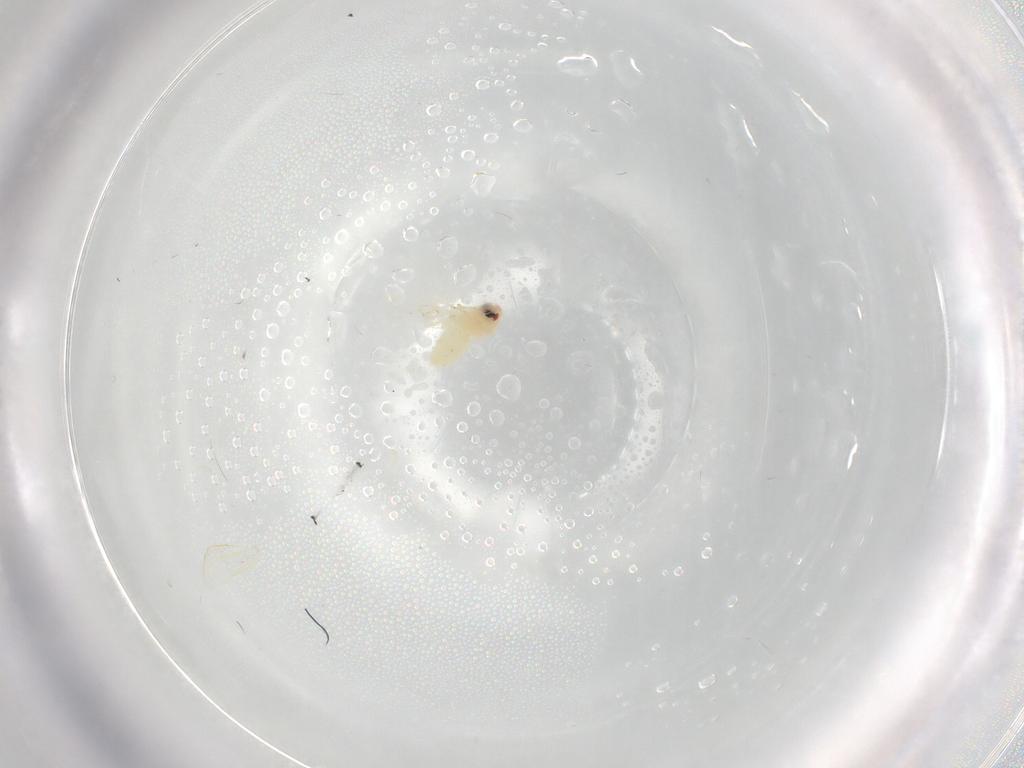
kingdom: Animalia
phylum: Arthropoda
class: Insecta
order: Hemiptera
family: Aleyrodidae
